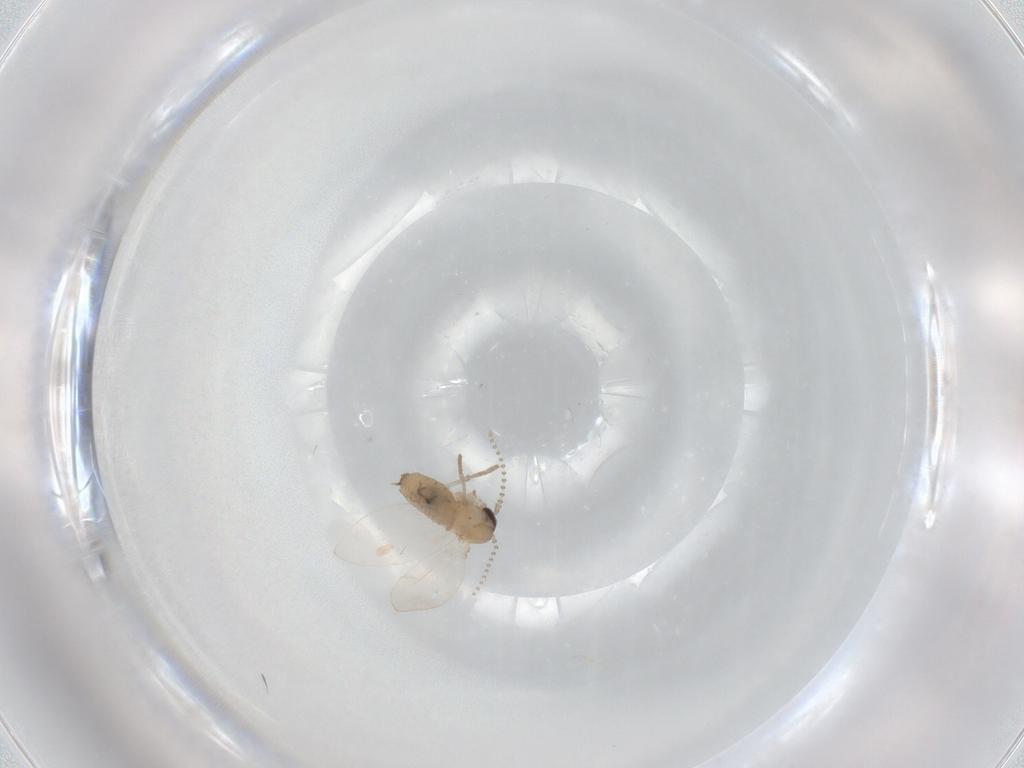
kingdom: Animalia
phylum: Arthropoda
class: Insecta
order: Diptera
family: Psychodidae
